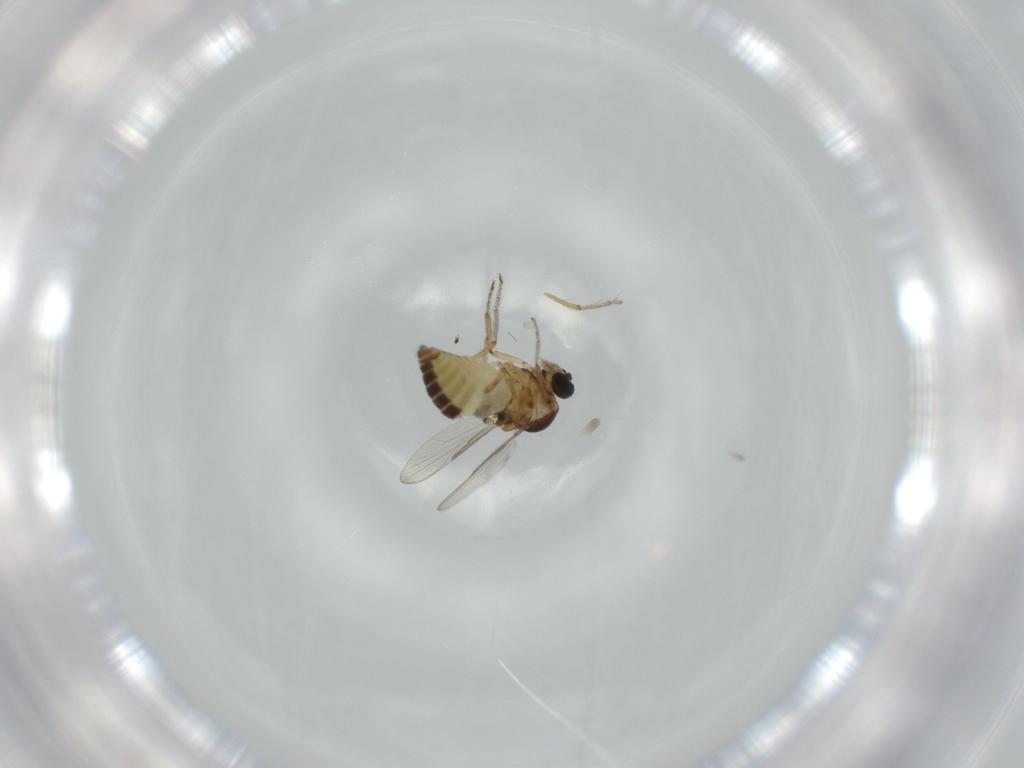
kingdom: Animalia
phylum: Arthropoda
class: Insecta
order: Diptera
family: Ceratopogonidae
